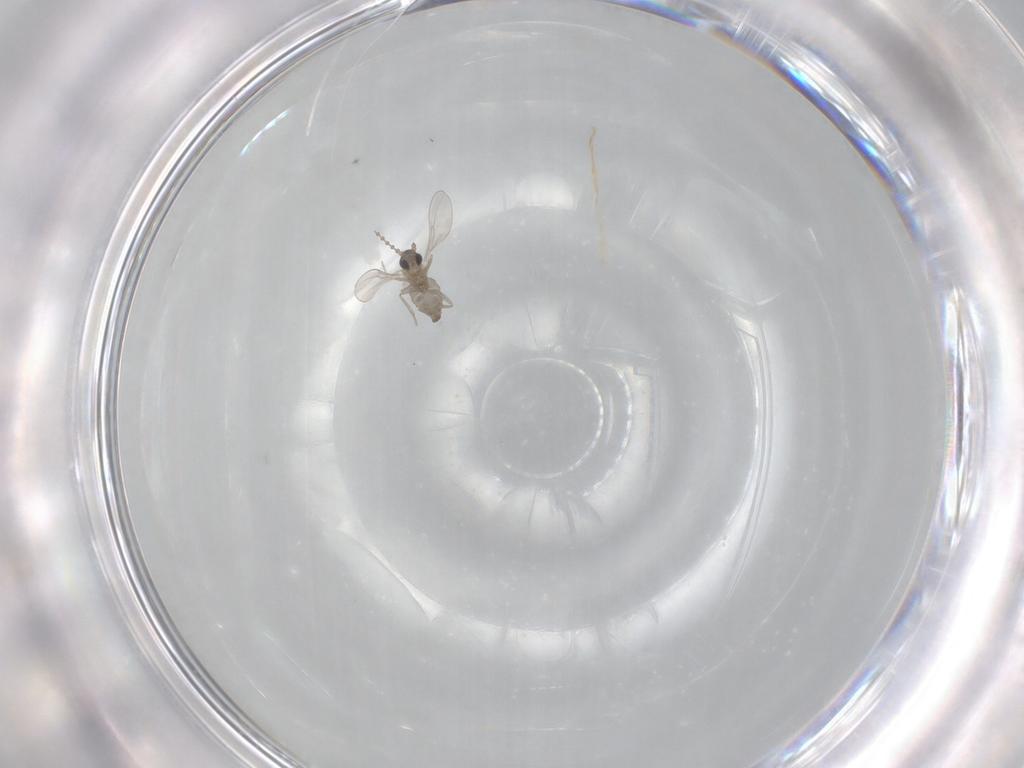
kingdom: Animalia
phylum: Arthropoda
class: Insecta
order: Diptera
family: Cecidomyiidae
